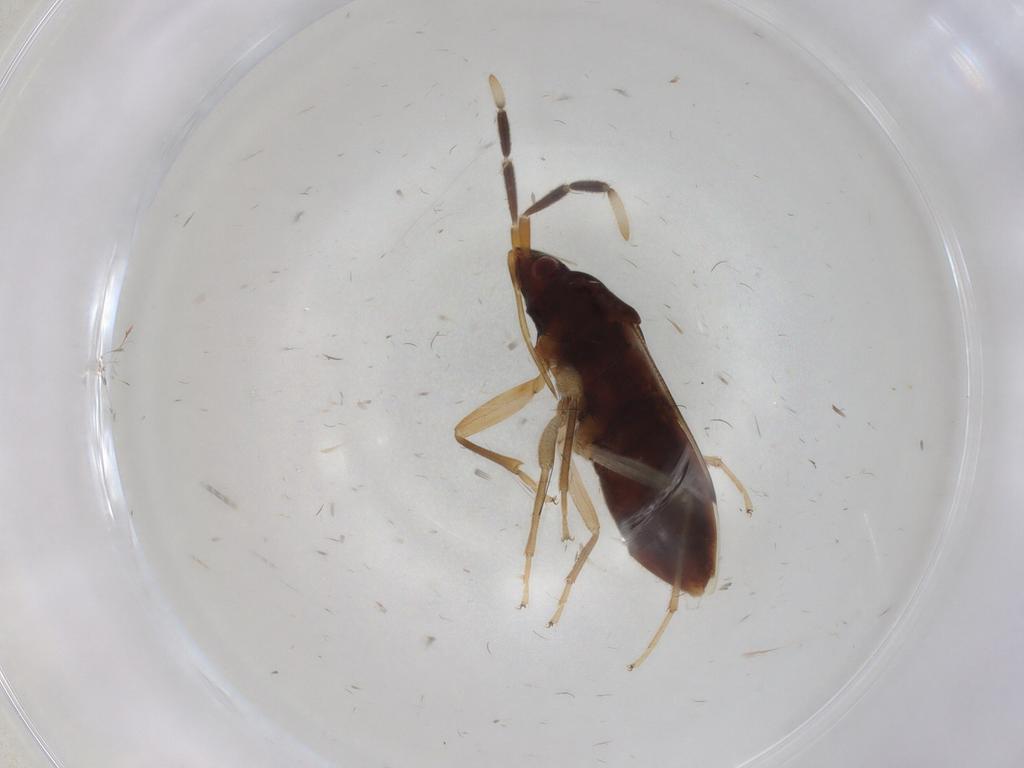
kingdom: Animalia
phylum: Arthropoda
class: Insecta
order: Hemiptera
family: Rhyparochromidae
